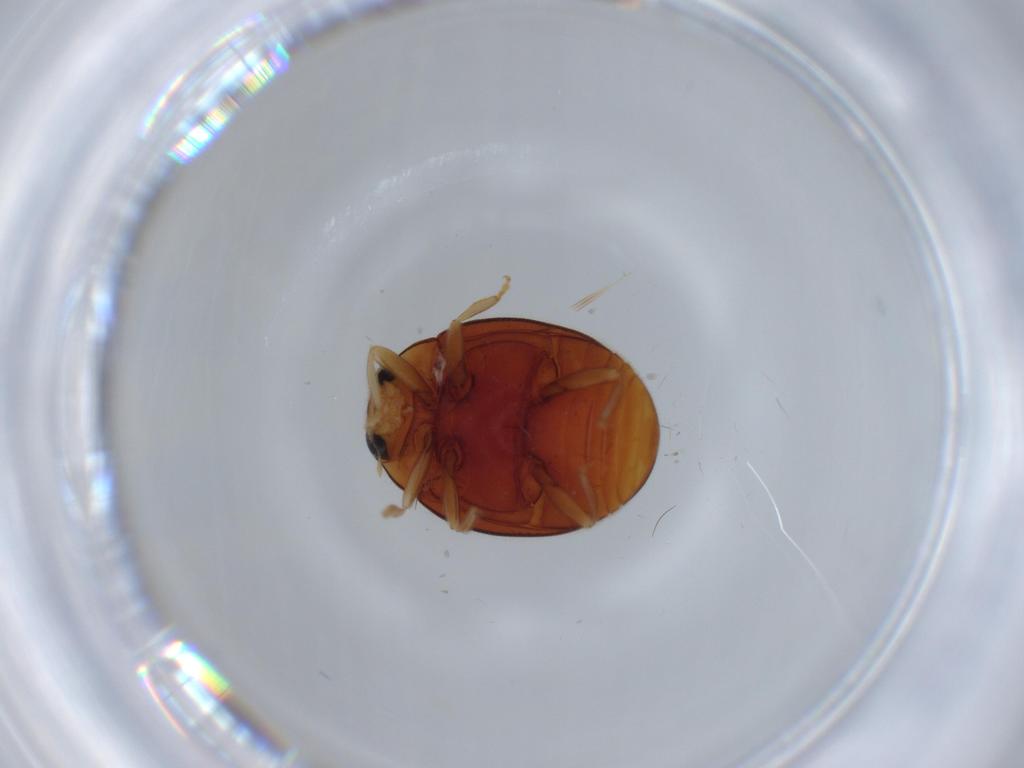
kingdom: Animalia
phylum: Arthropoda
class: Insecta
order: Coleoptera
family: Coccinellidae
